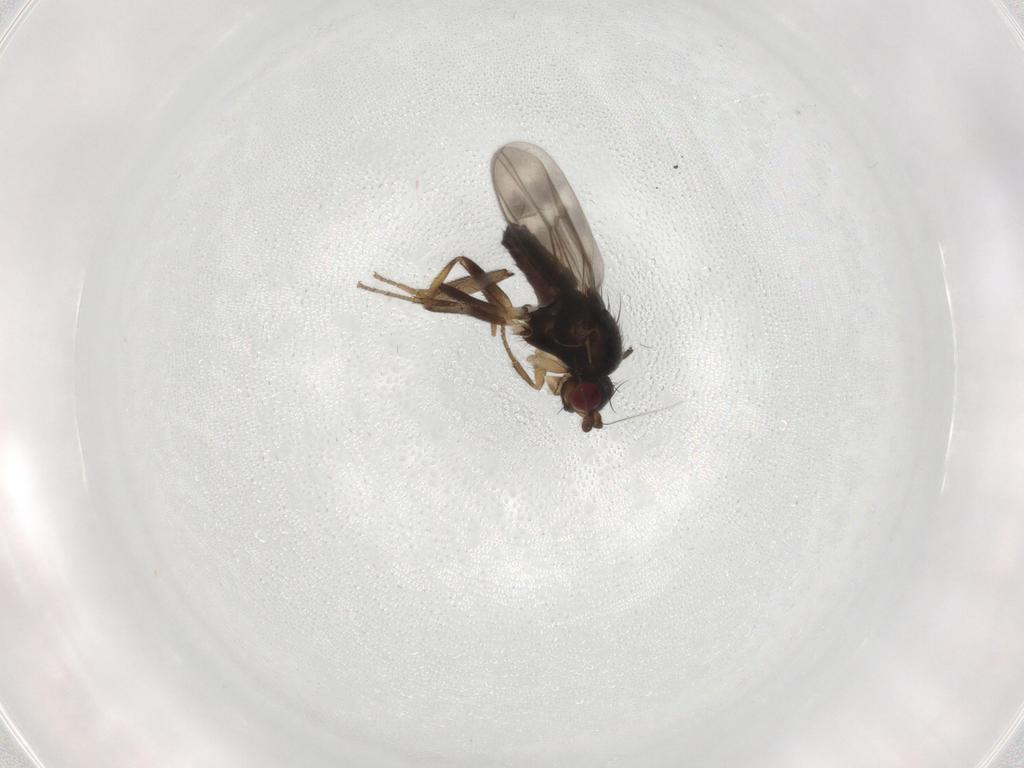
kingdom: Animalia
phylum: Arthropoda
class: Insecta
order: Diptera
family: Sphaeroceridae
